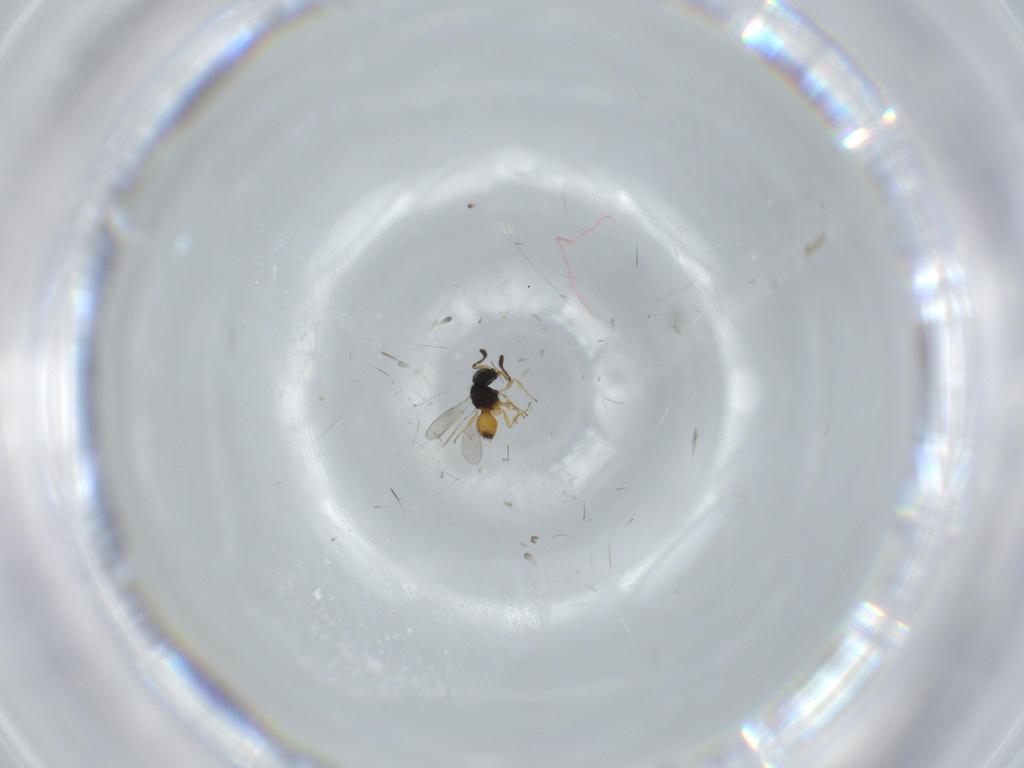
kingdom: Animalia
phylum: Arthropoda
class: Insecta
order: Hymenoptera
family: Scelionidae
